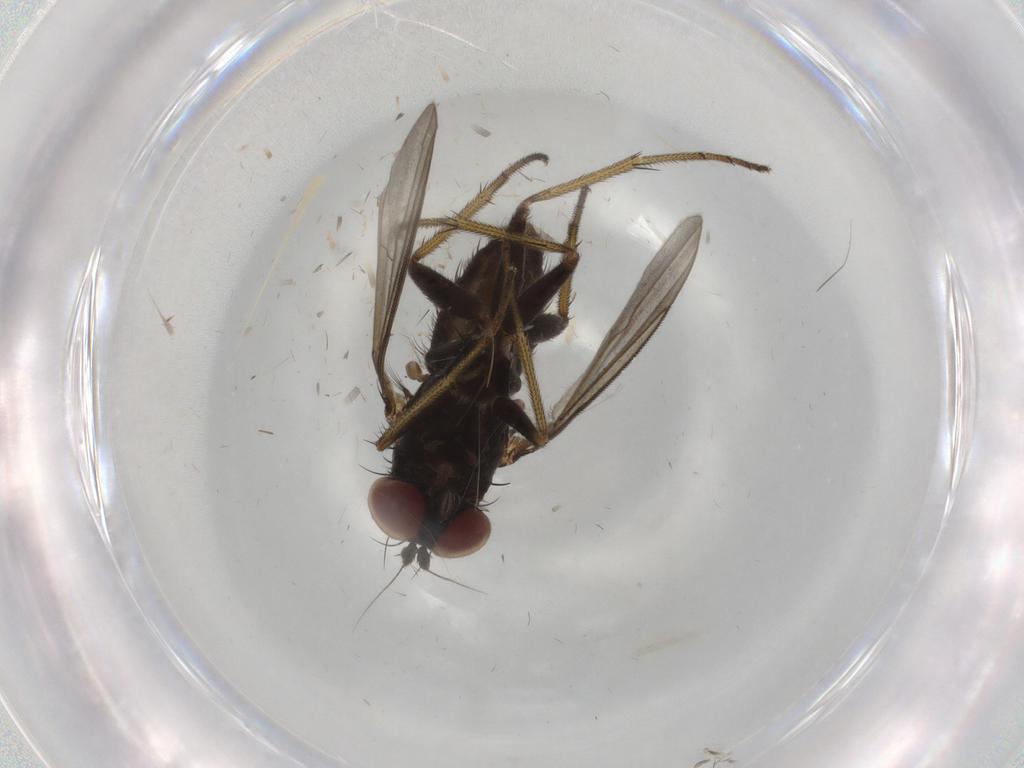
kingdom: Animalia
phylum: Arthropoda
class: Insecta
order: Diptera
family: Dolichopodidae
